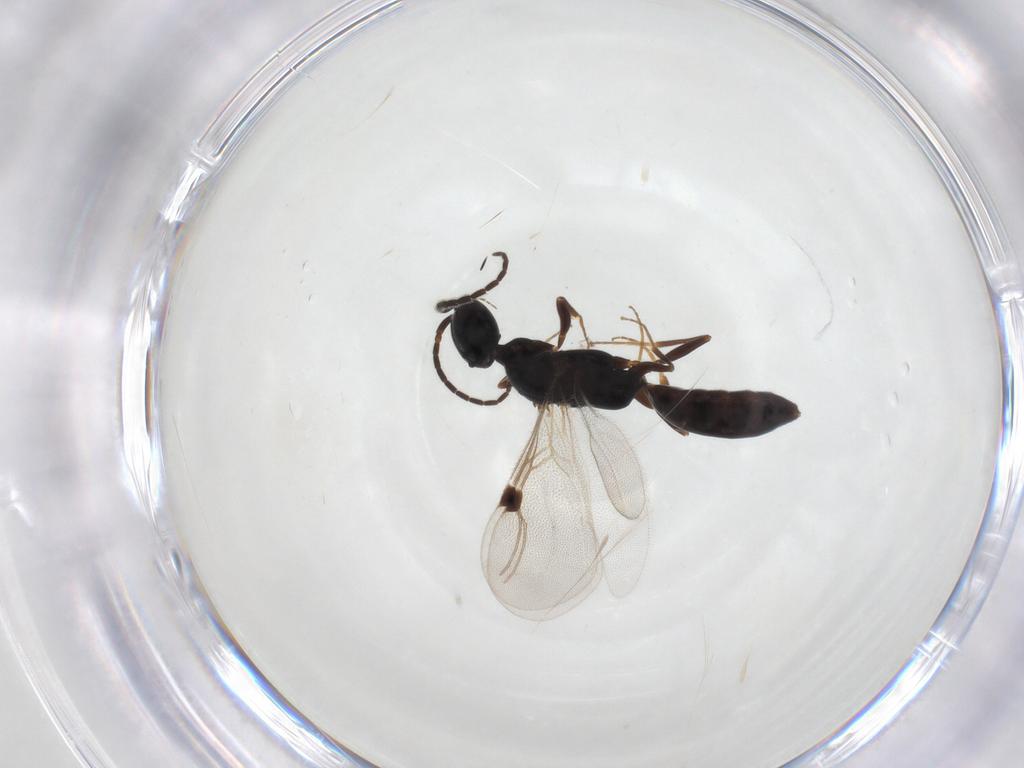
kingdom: Animalia
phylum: Arthropoda
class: Insecta
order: Hymenoptera
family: Bethylidae
